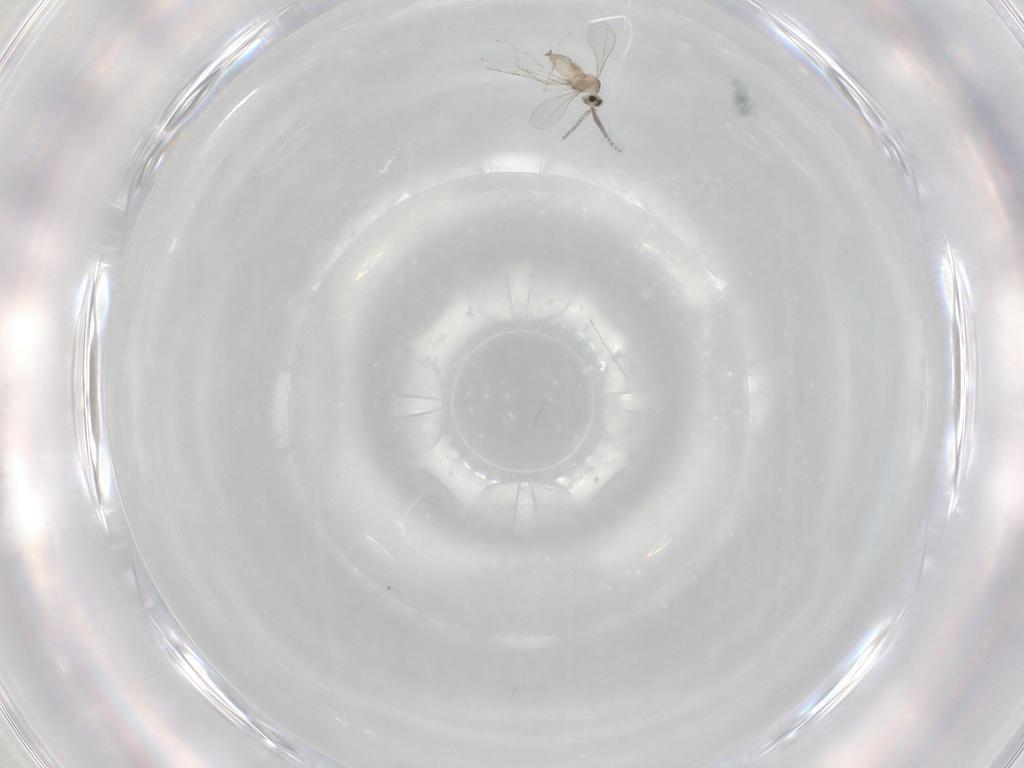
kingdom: Animalia
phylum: Arthropoda
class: Insecta
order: Diptera
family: Cecidomyiidae
